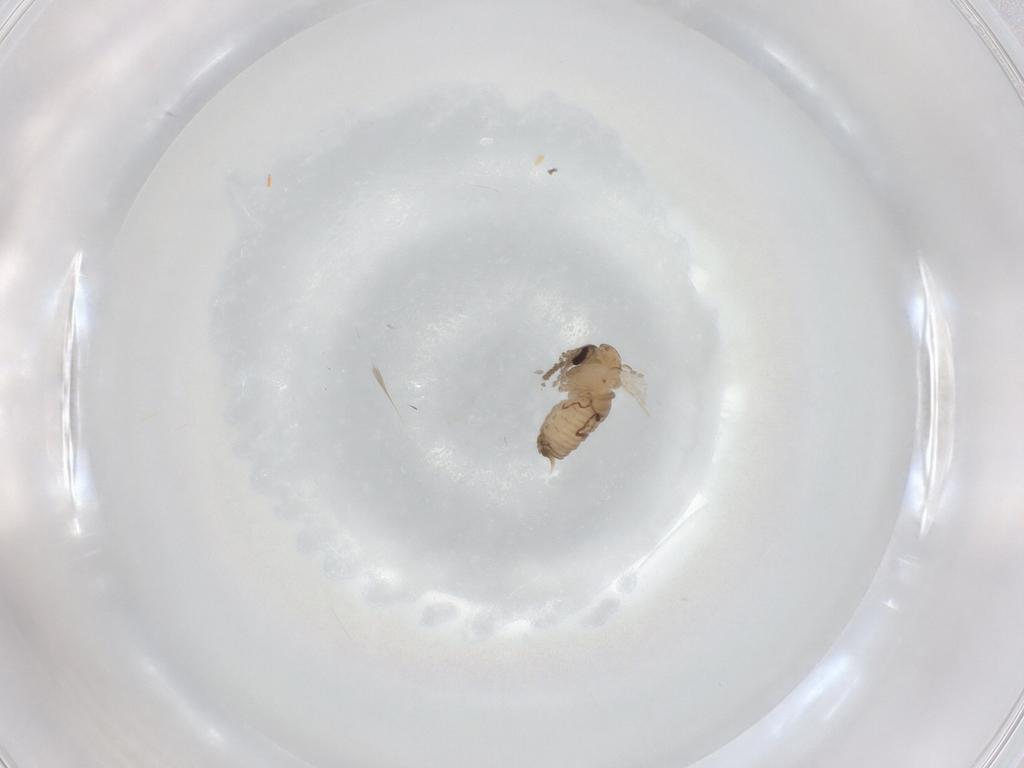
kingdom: Animalia
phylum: Arthropoda
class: Insecta
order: Diptera
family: Psychodidae
